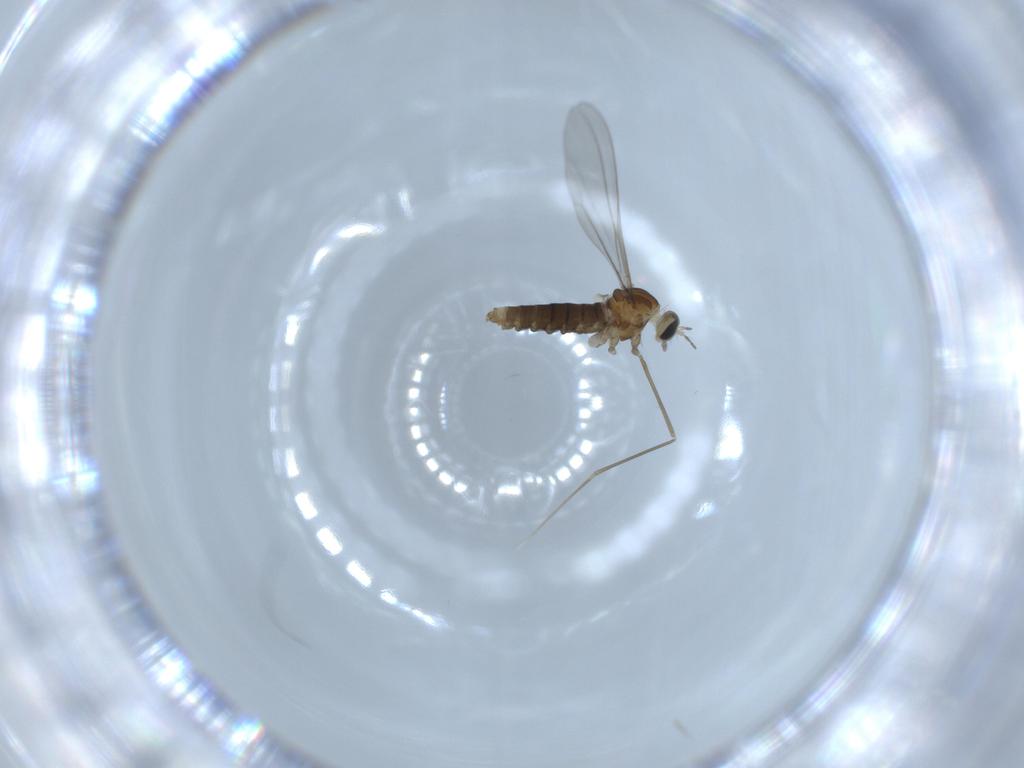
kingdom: Animalia
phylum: Arthropoda
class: Insecta
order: Diptera
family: Cecidomyiidae
